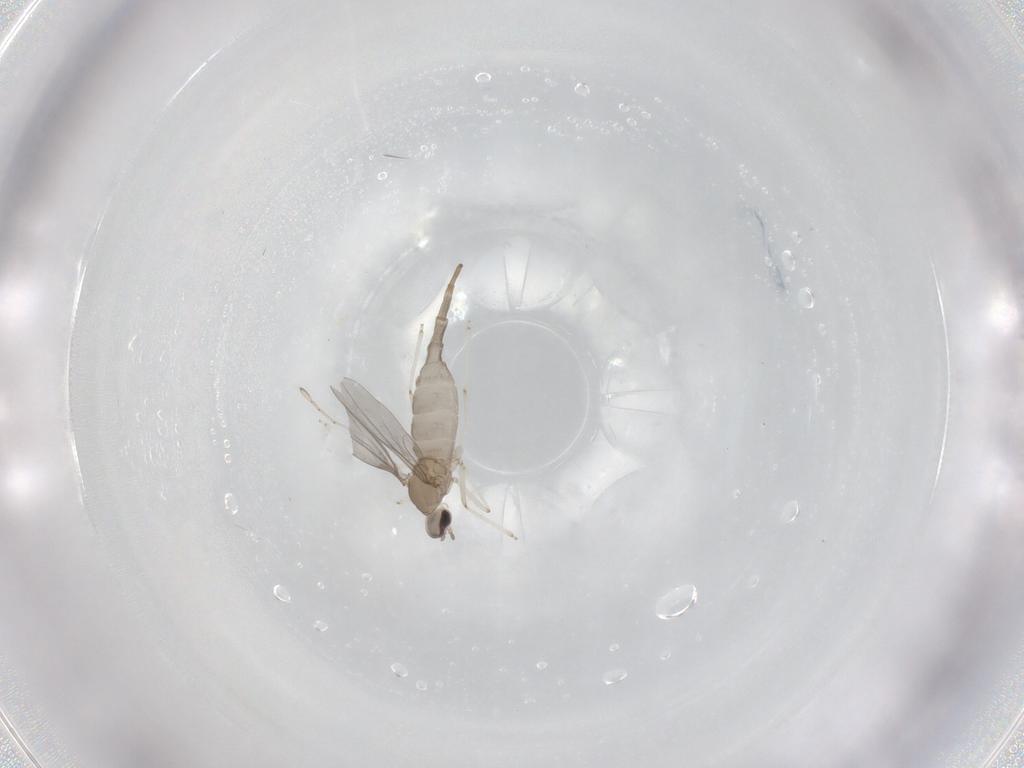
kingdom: Animalia
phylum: Arthropoda
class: Insecta
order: Diptera
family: Cecidomyiidae
